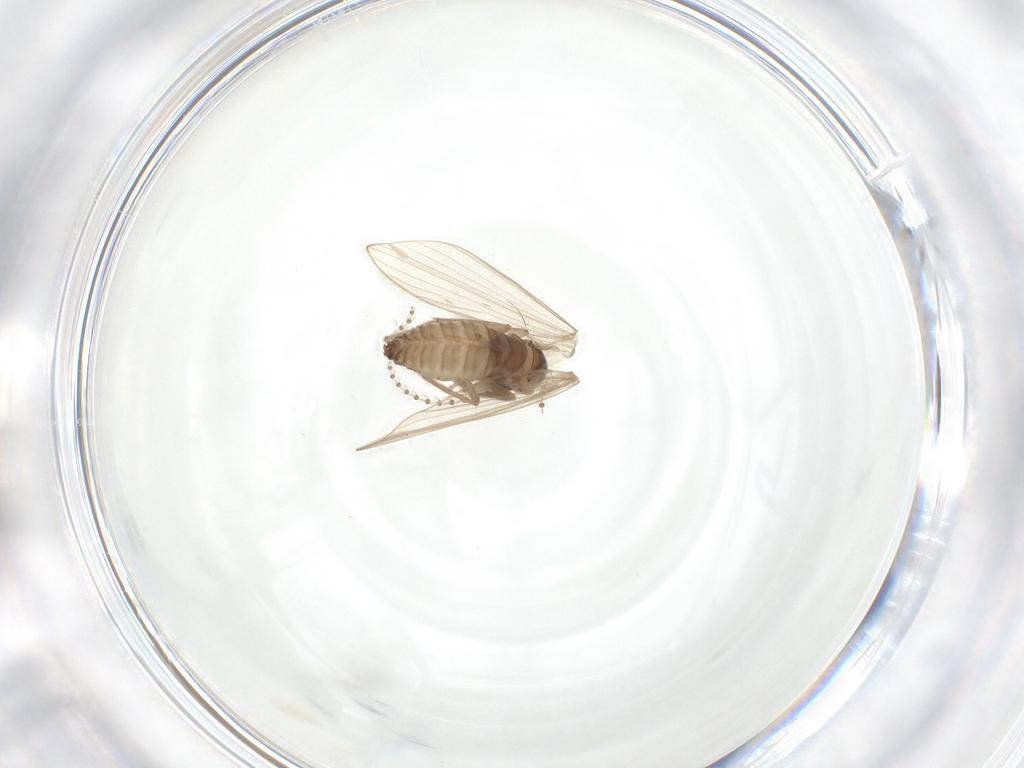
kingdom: Animalia
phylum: Arthropoda
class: Insecta
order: Diptera
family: Psychodidae
